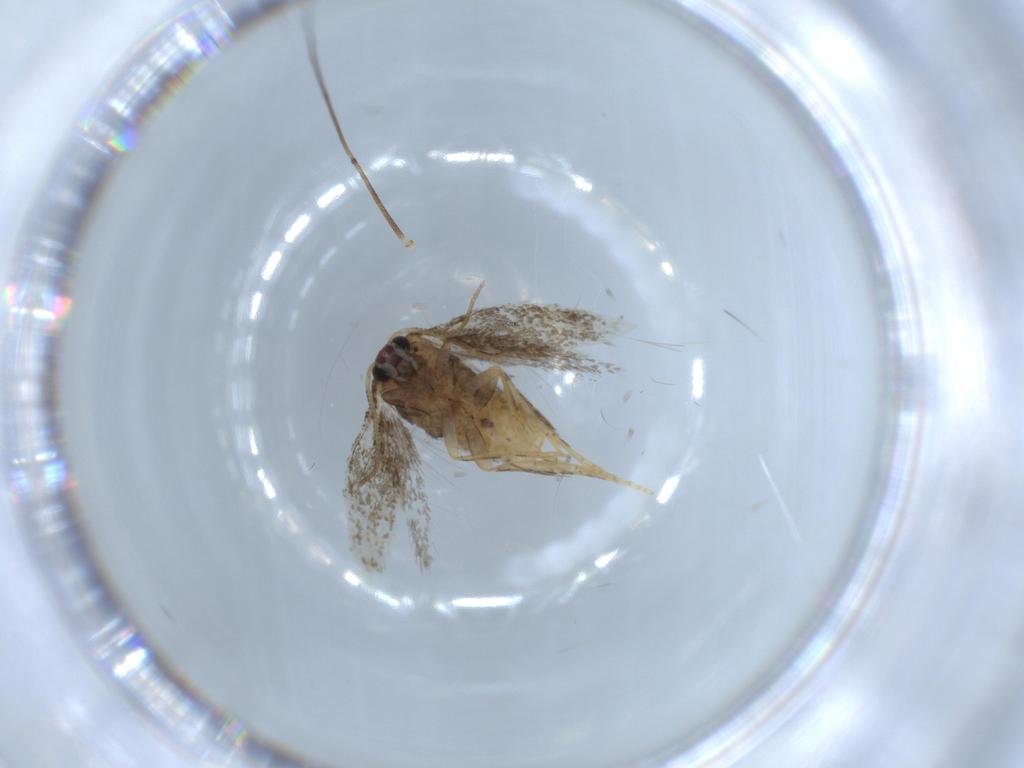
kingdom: Animalia
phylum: Arthropoda
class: Insecta
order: Lepidoptera
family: Nepticulidae
